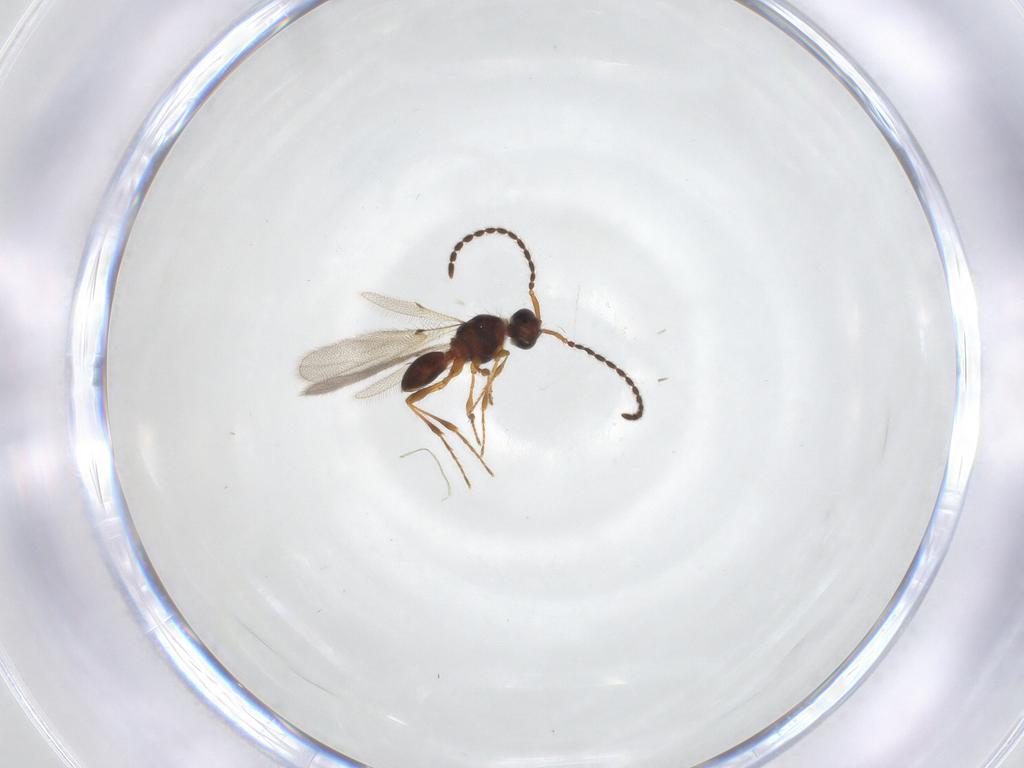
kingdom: Animalia
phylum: Arthropoda
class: Insecta
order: Hymenoptera
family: Diapriidae
